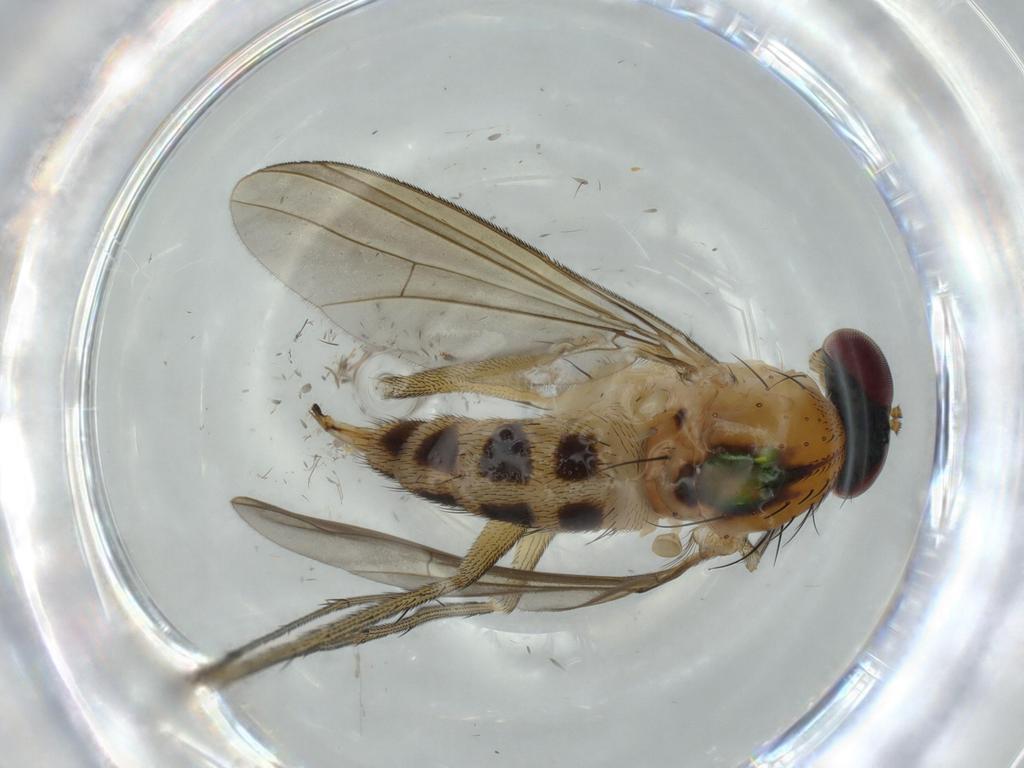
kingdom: Animalia
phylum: Arthropoda
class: Insecta
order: Diptera
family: Dolichopodidae
